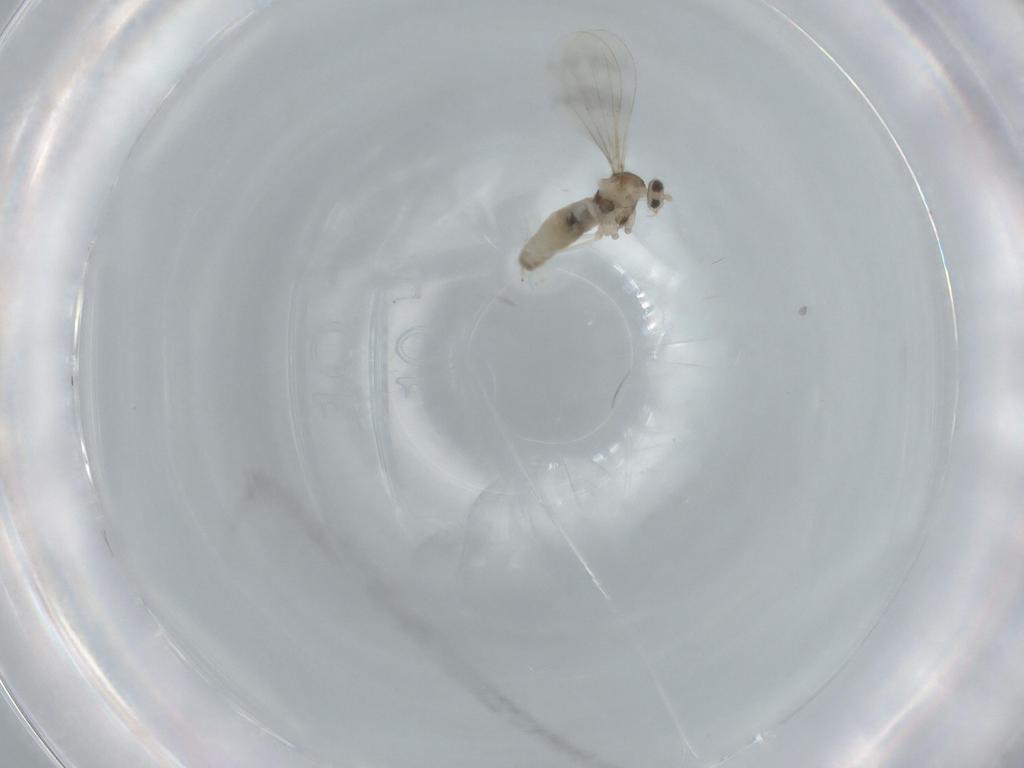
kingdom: Animalia
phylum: Arthropoda
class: Insecta
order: Diptera
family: Cecidomyiidae
